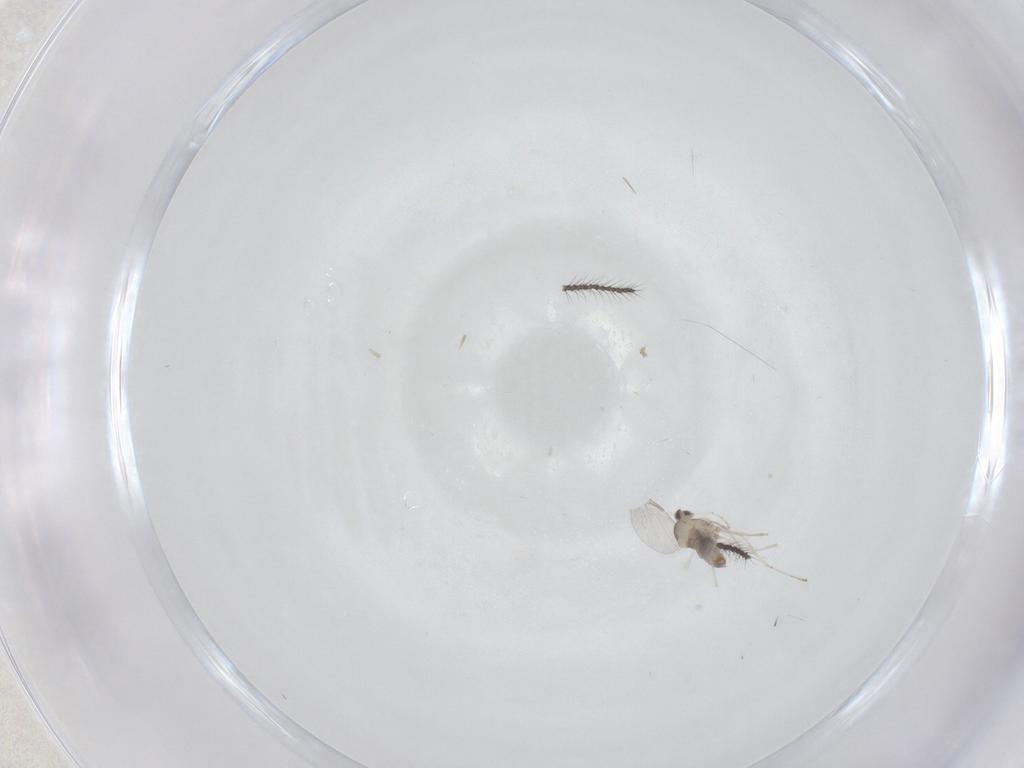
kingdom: Animalia
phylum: Arthropoda
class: Insecta
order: Diptera
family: Cecidomyiidae
